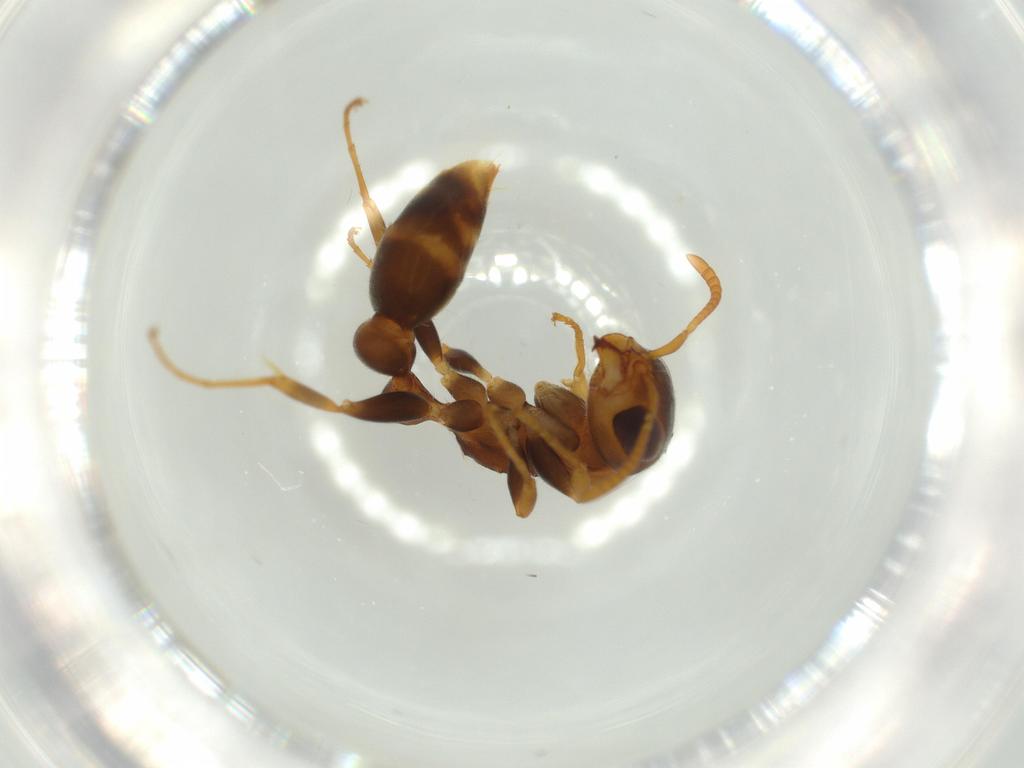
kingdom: Animalia
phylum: Arthropoda
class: Insecta
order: Hymenoptera
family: Formicidae
